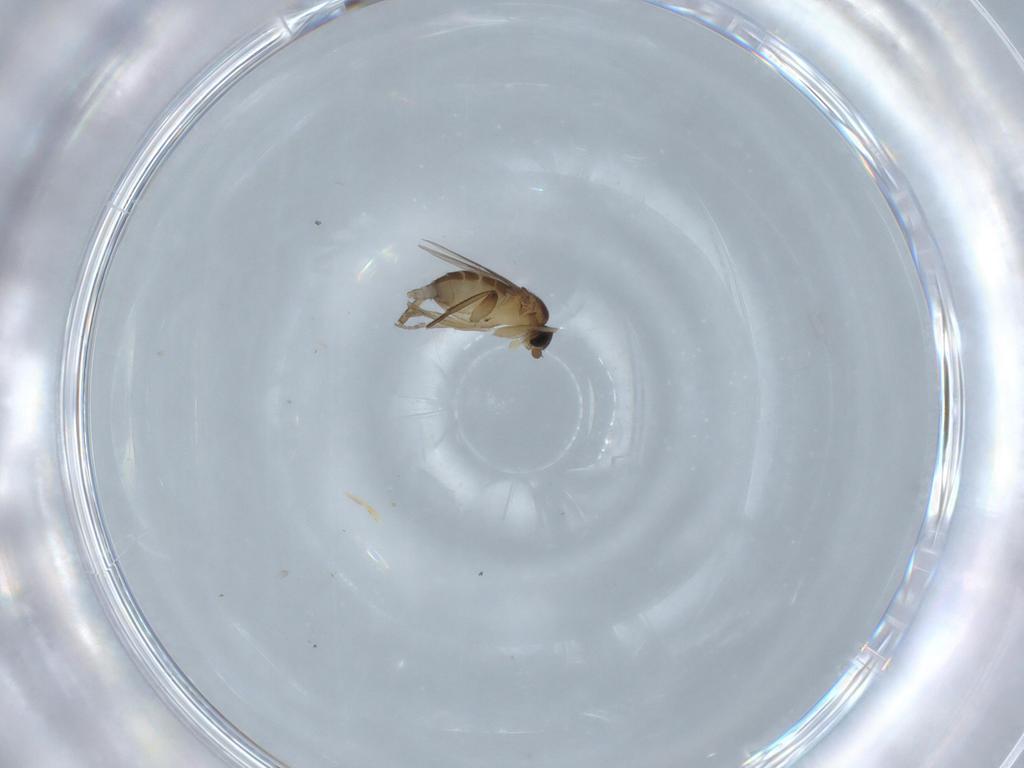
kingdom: Animalia
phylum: Arthropoda
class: Insecta
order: Diptera
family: Phoridae
